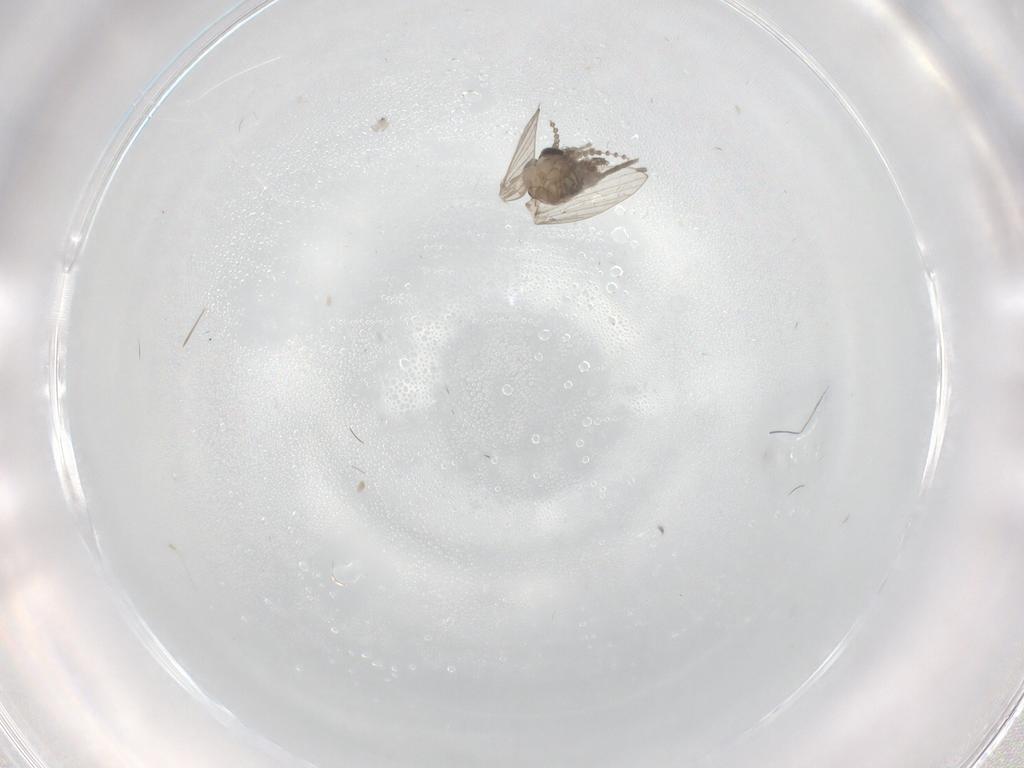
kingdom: Animalia
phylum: Arthropoda
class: Insecta
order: Diptera
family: Psychodidae
